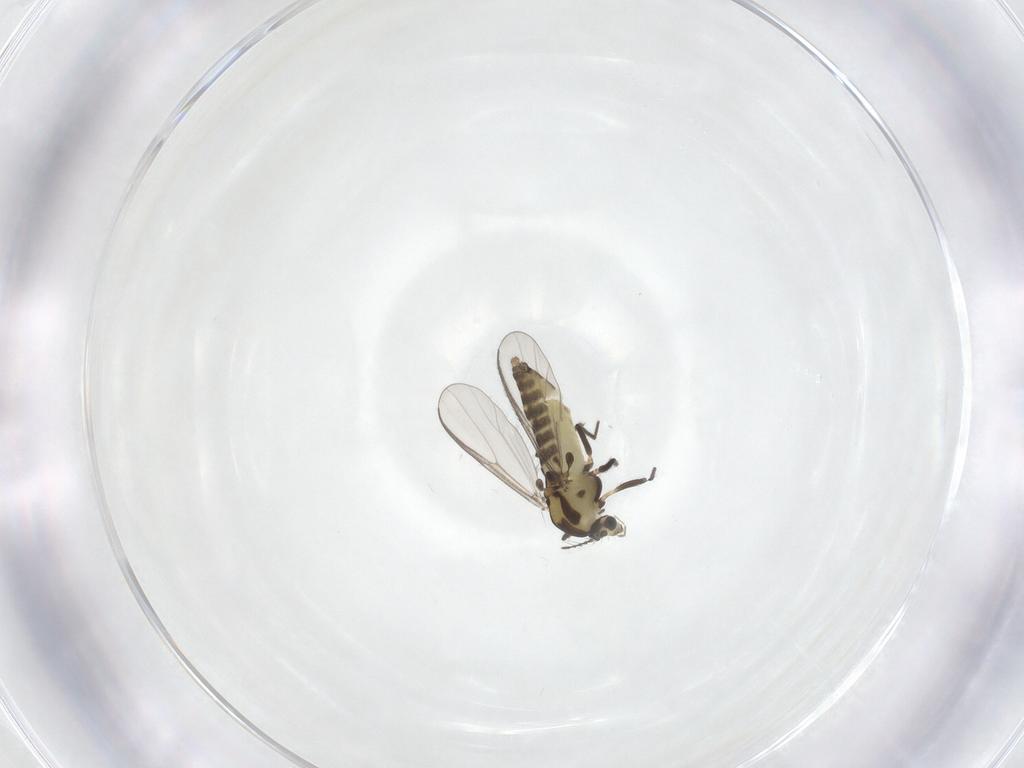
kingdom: Animalia
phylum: Arthropoda
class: Insecta
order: Diptera
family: Chironomidae
